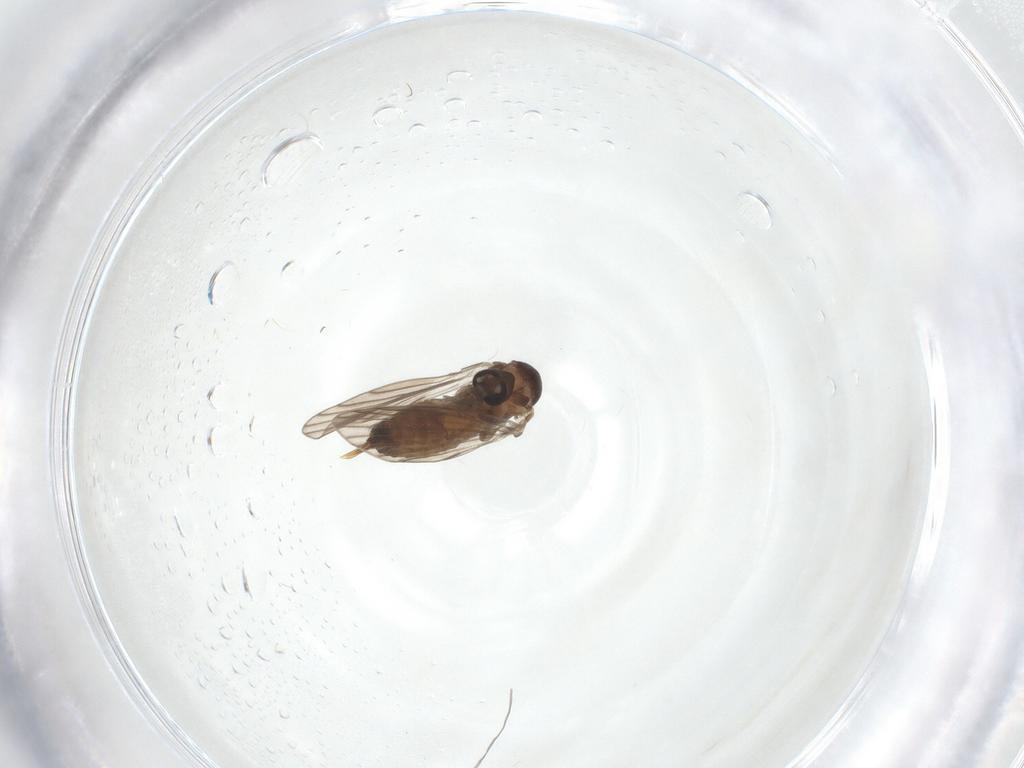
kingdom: Animalia
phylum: Arthropoda
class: Insecta
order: Diptera
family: Psychodidae
